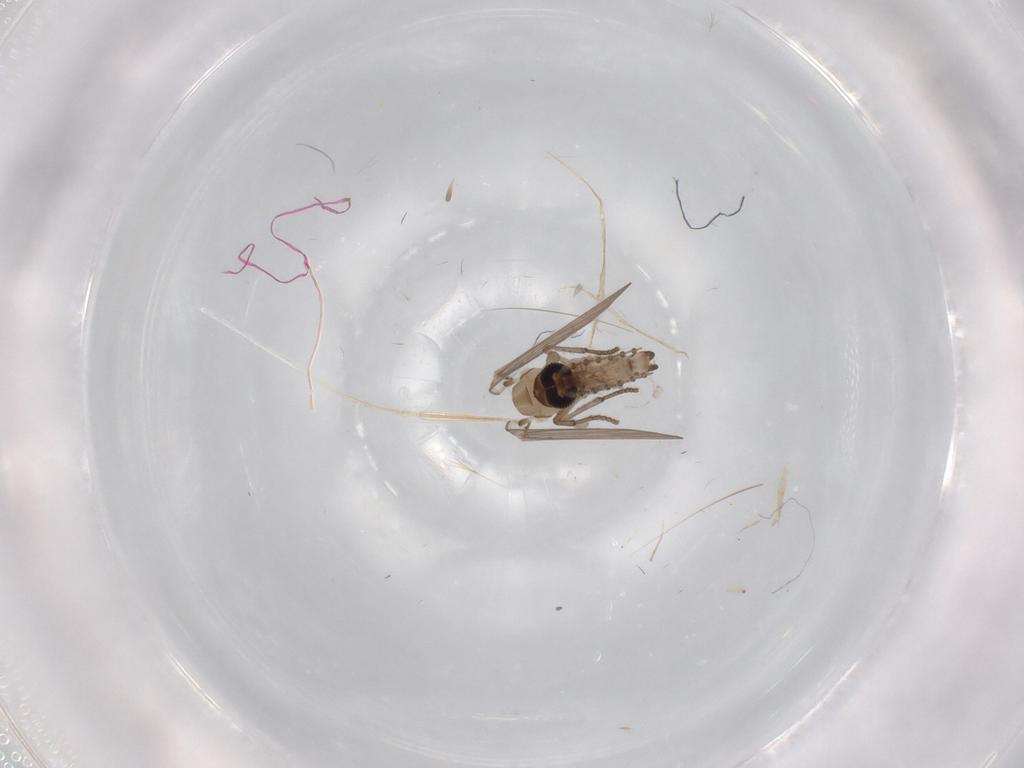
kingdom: Animalia
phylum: Arthropoda
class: Insecta
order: Diptera
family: Psychodidae
